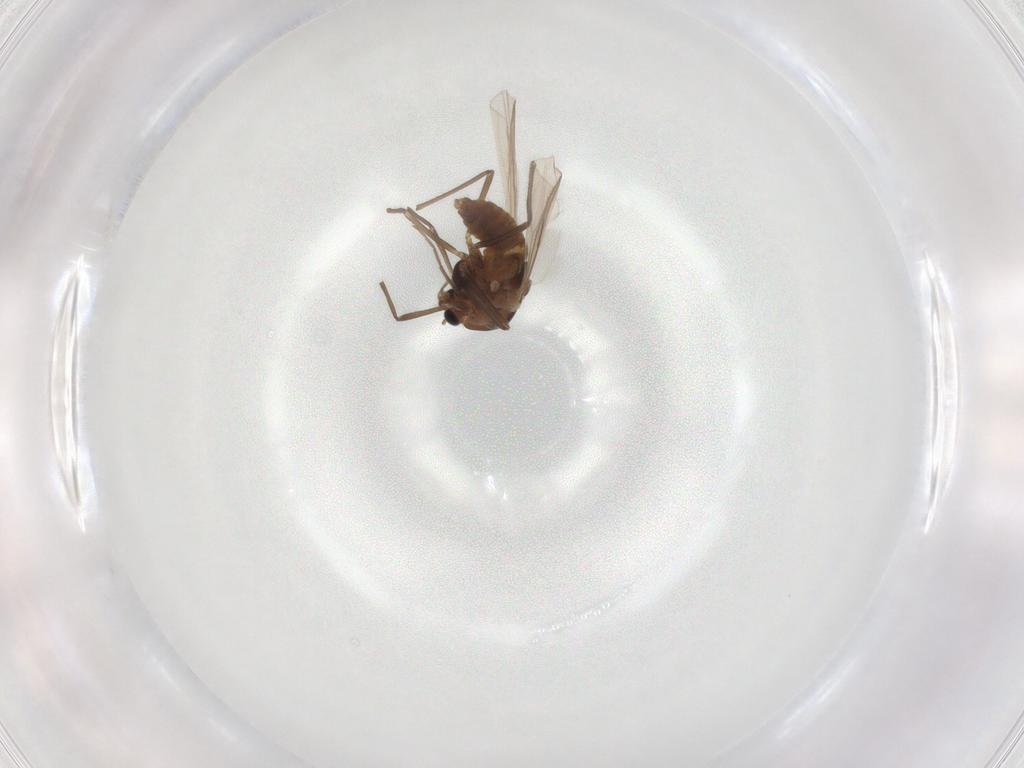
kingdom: Animalia
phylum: Arthropoda
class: Insecta
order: Diptera
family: Chironomidae
